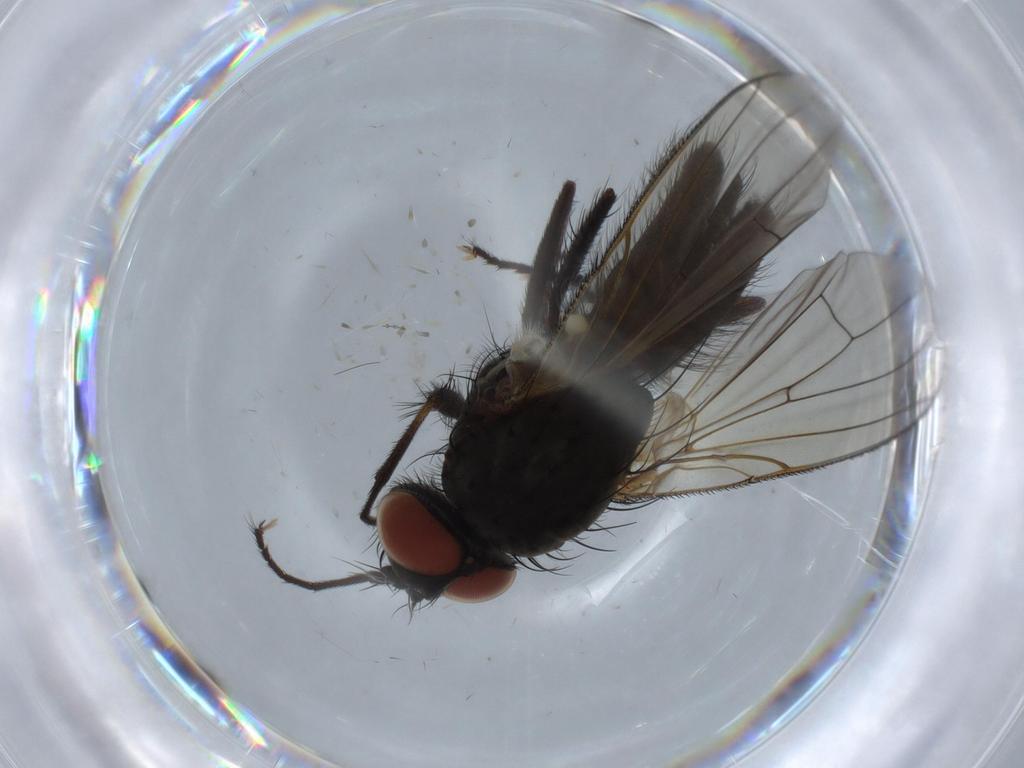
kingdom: Animalia
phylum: Arthropoda
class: Insecta
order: Diptera
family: Anthomyiidae
